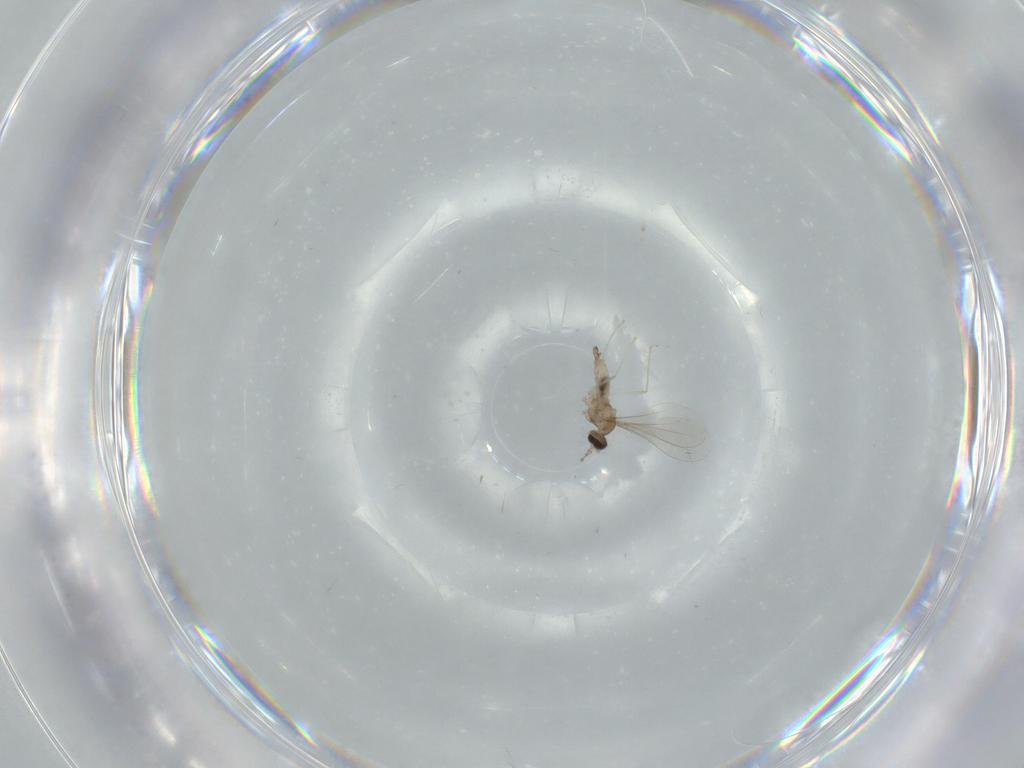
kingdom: Animalia
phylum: Arthropoda
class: Insecta
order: Diptera
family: Cecidomyiidae
